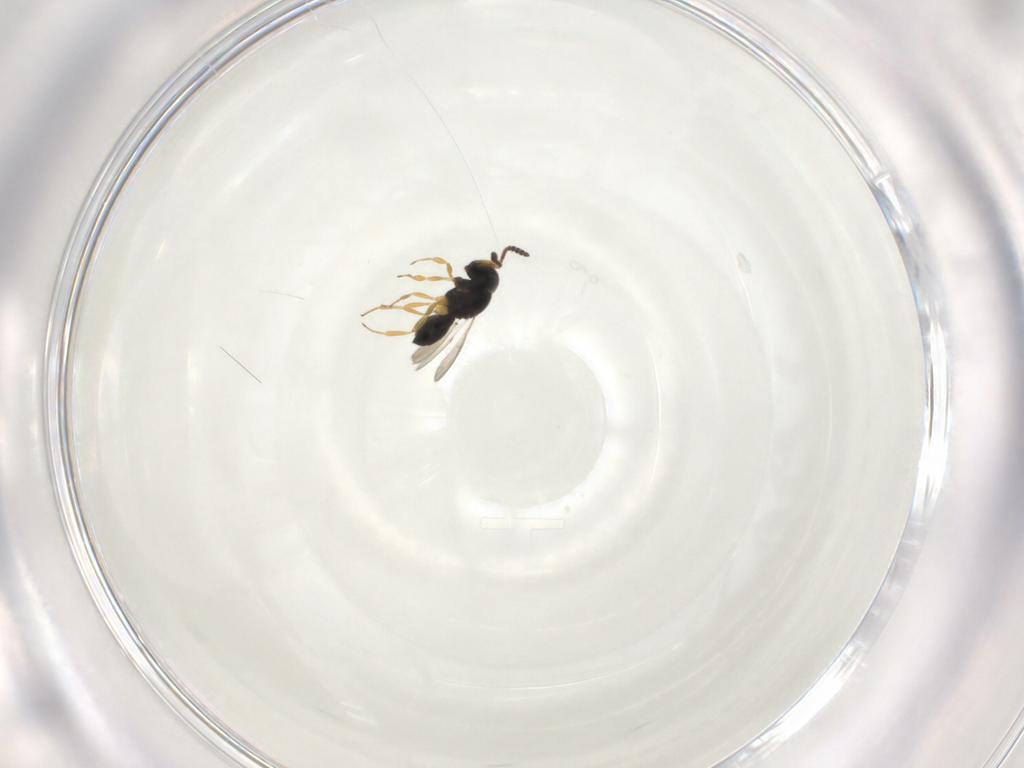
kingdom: Animalia
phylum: Arthropoda
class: Insecta
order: Hymenoptera
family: Scelionidae
